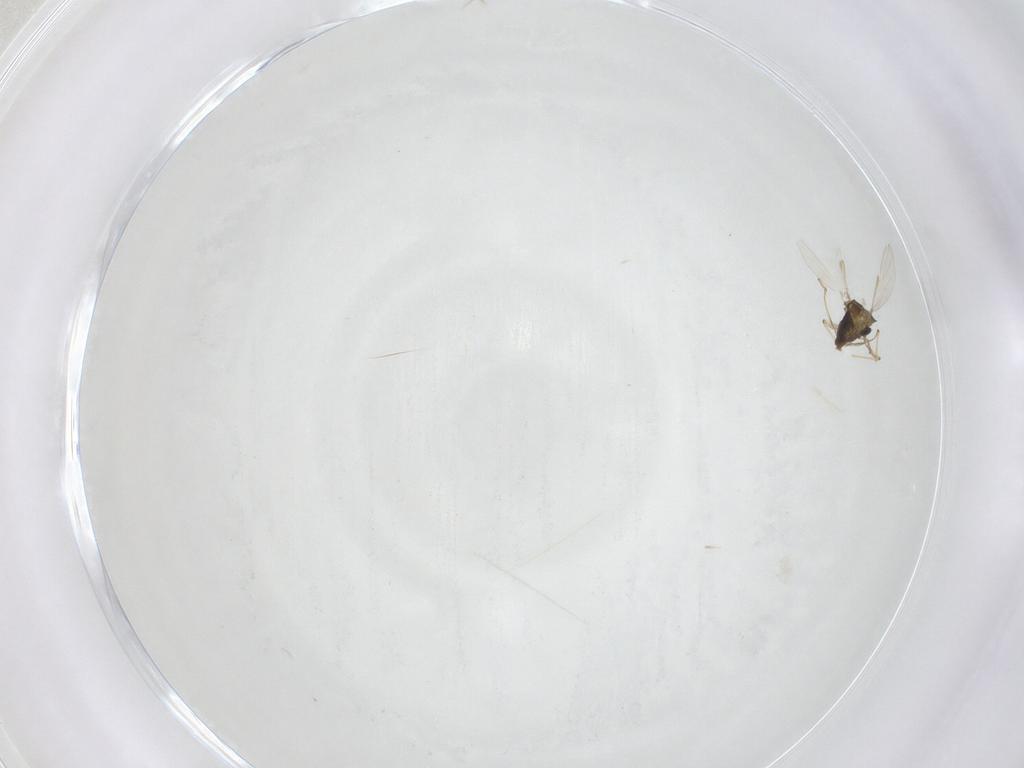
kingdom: Animalia
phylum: Arthropoda
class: Insecta
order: Diptera
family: Chironomidae
